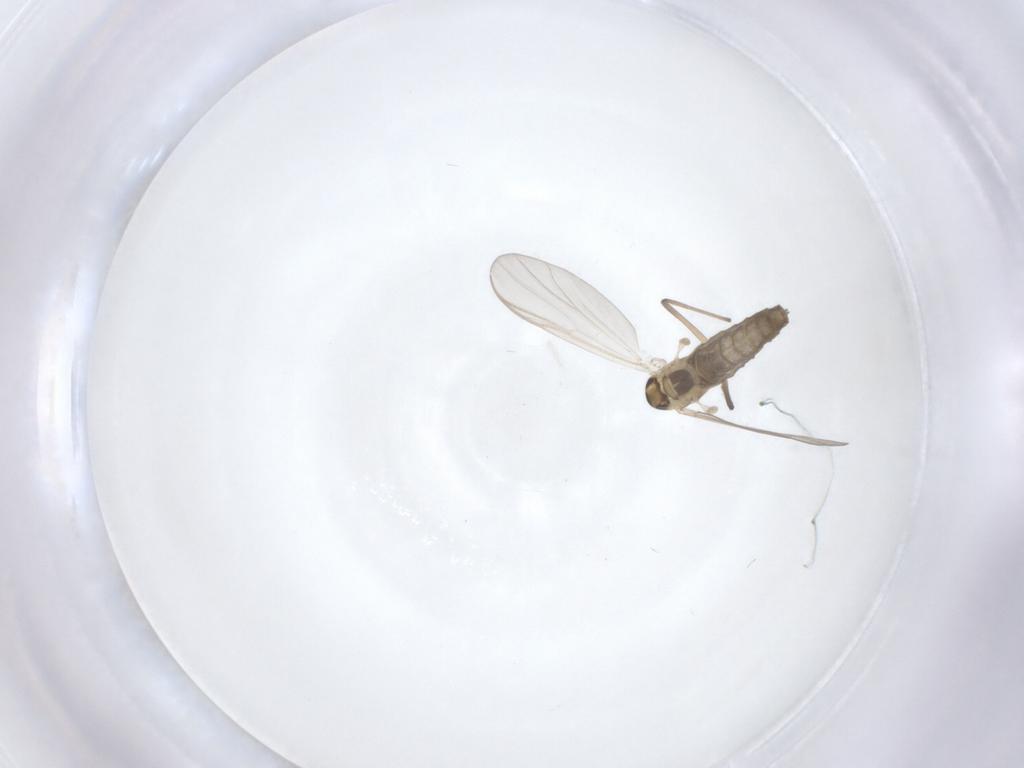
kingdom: Animalia
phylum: Arthropoda
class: Insecta
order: Diptera
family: Chironomidae
